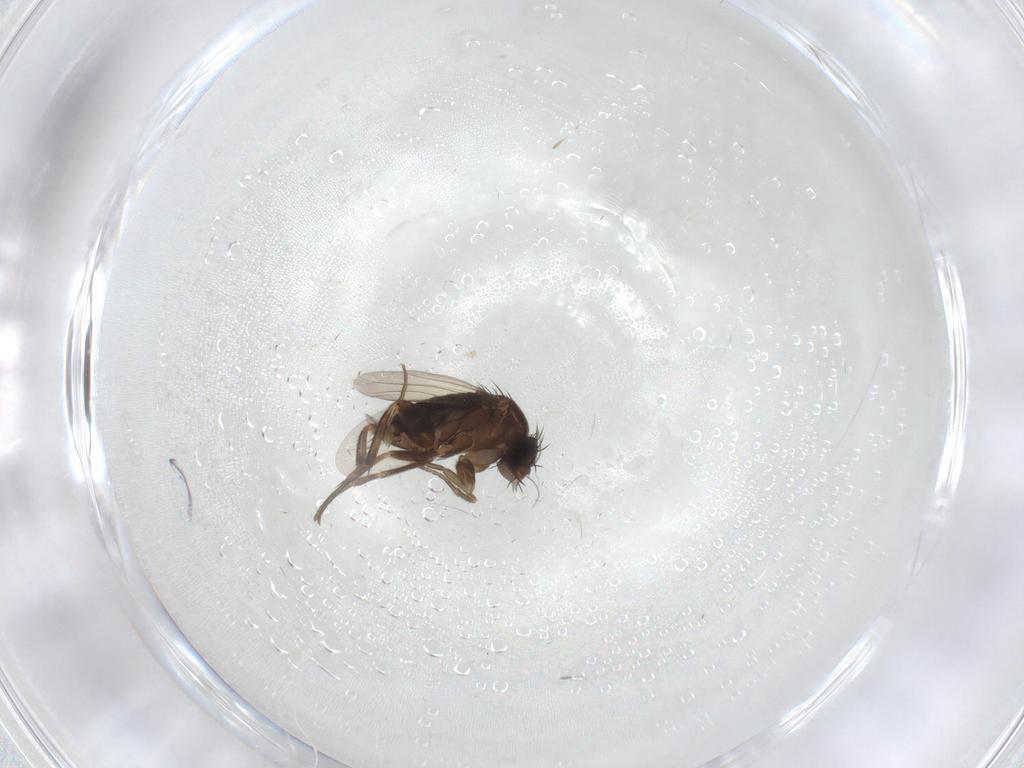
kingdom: Animalia
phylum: Arthropoda
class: Insecta
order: Diptera
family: Phoridae
